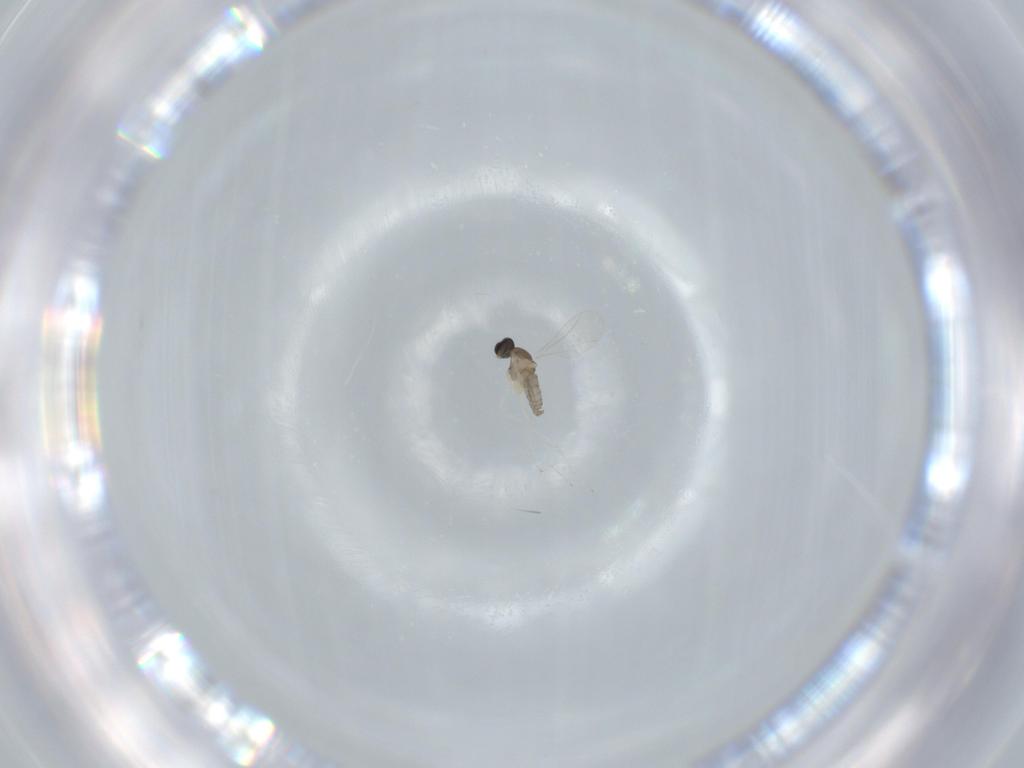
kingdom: Animalia
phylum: Arthropoda
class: Insecta
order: Diptera
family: Cecidomyiidae
